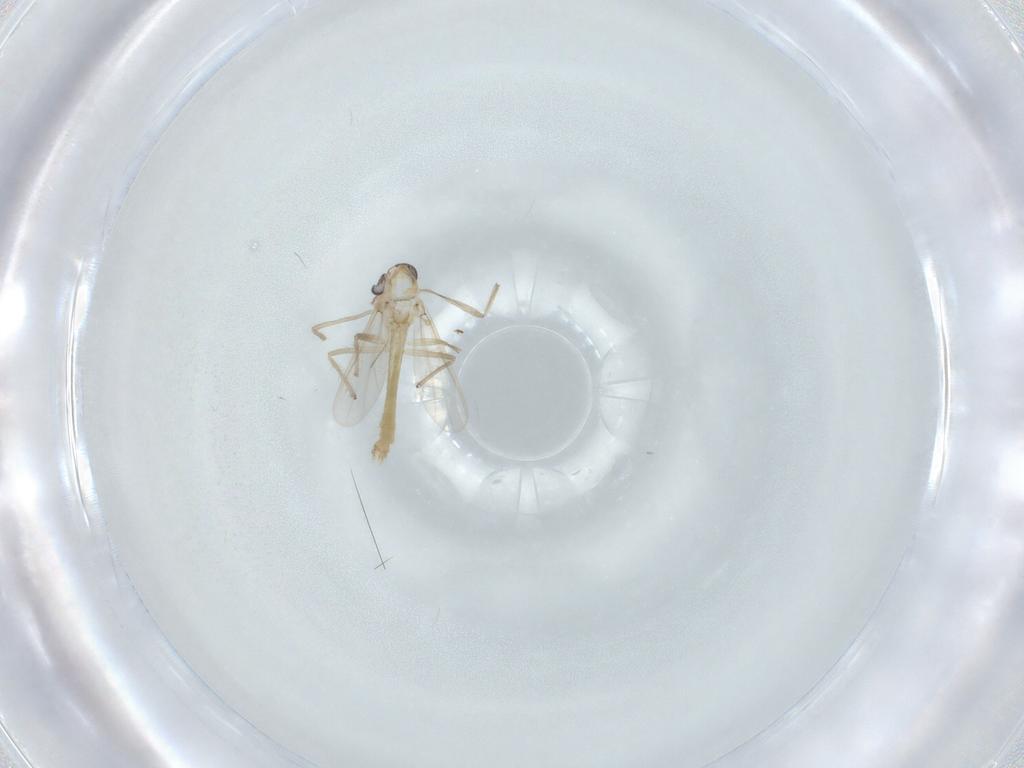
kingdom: Animalia
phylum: Arthropoda
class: Insecta
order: Diptera
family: Chironomidae
